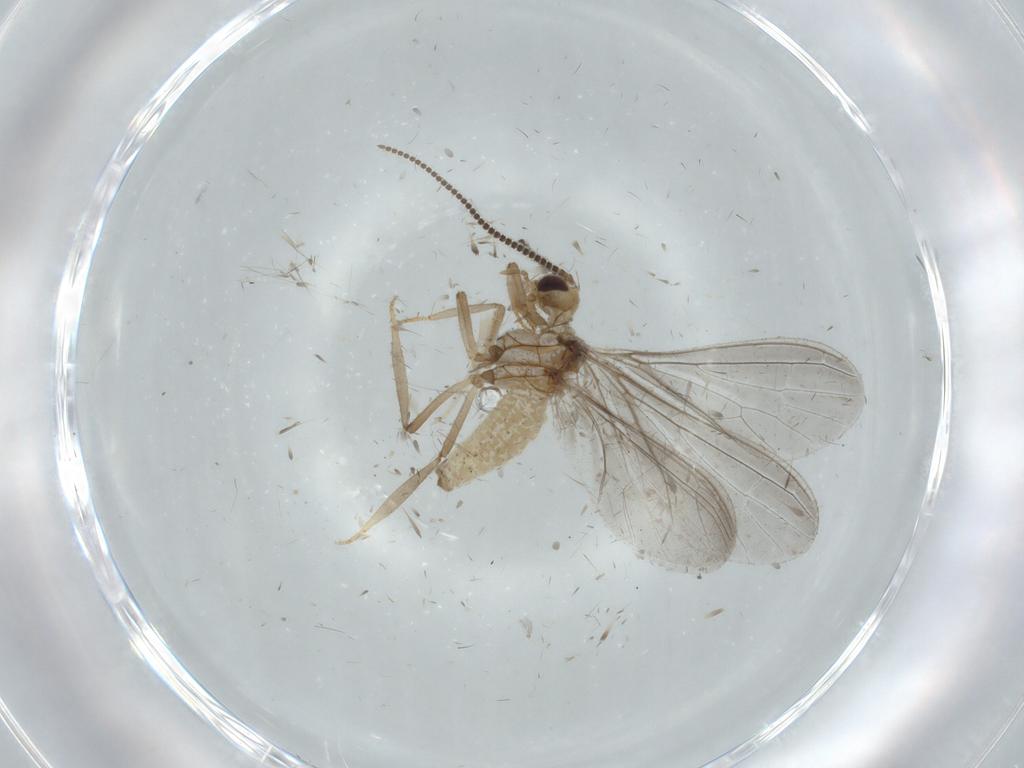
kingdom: Animalia
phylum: Arthropoda
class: Insecta
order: Neuroptera
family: Coniopterygidae
